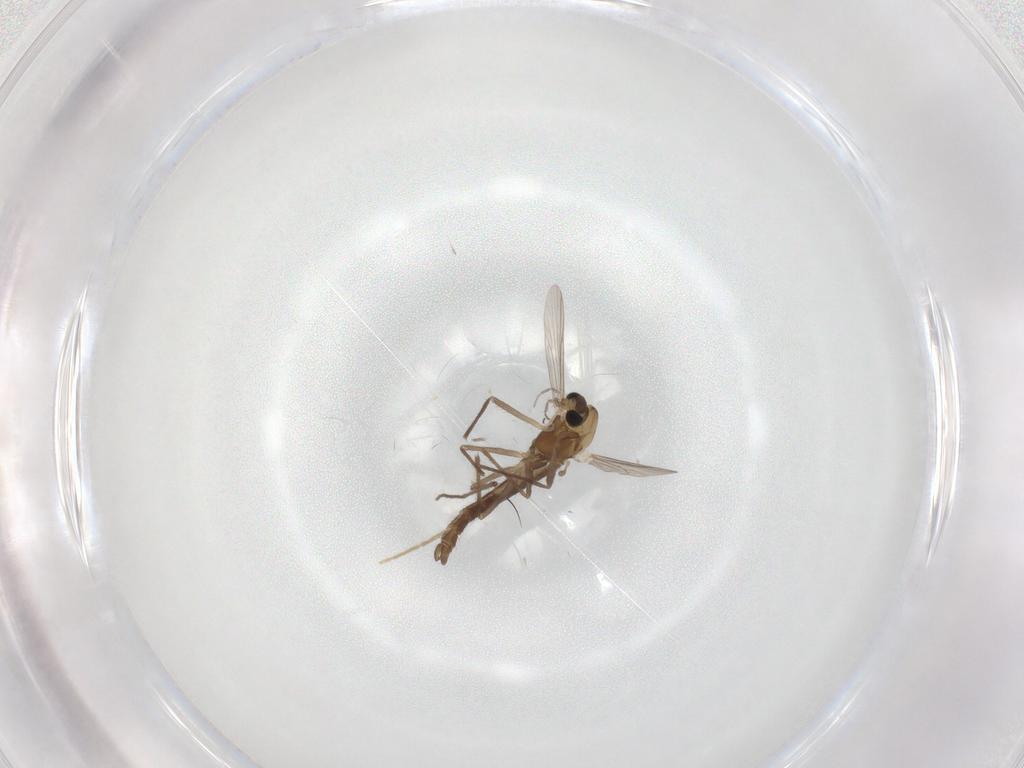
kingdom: Animalia
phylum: Arthropoda
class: Insecta
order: Diptera
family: Chironomidae
